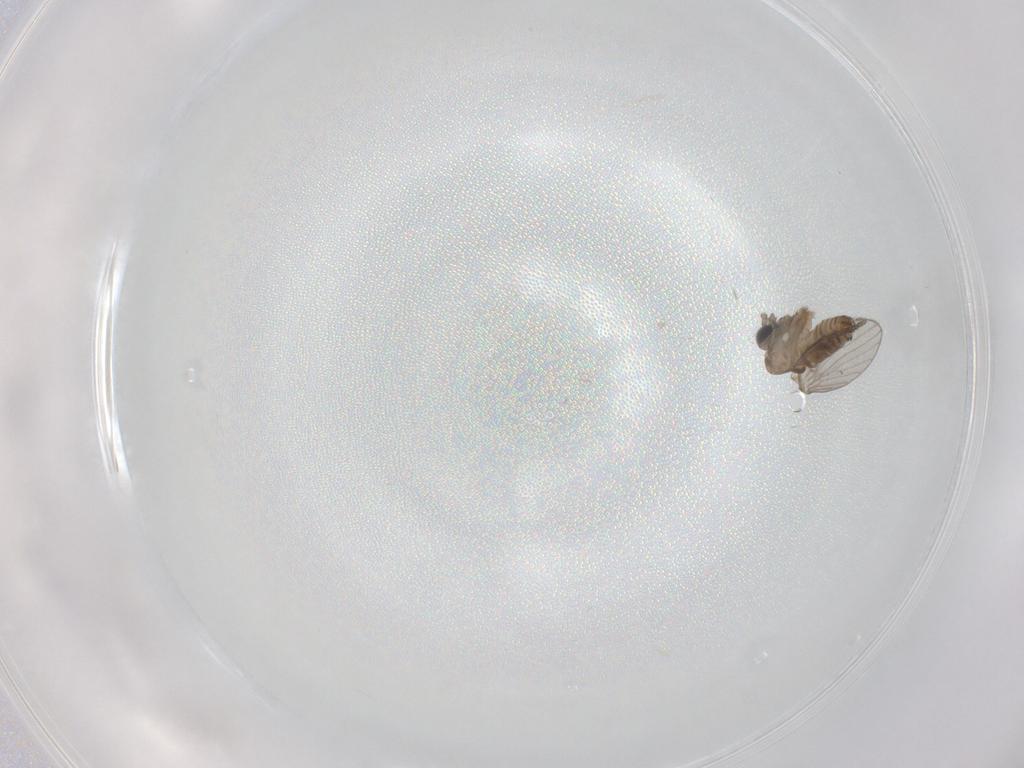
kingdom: Animalia
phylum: Arthropoda
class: Insecta
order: Diptera
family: Psychodidae
